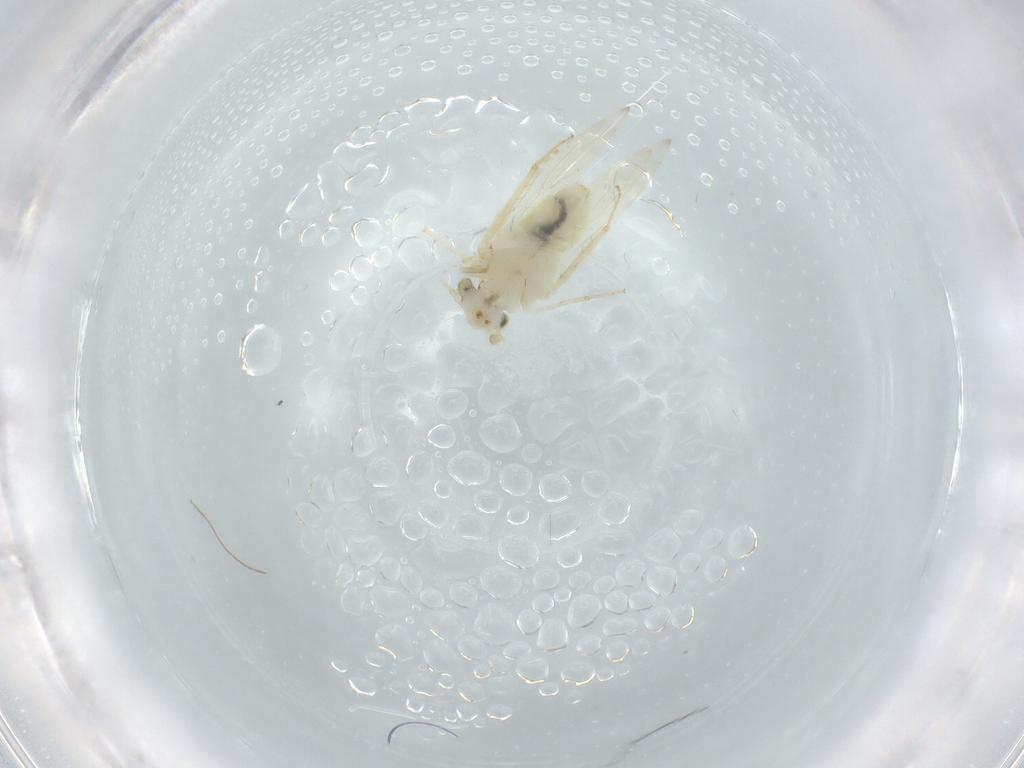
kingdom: Animalia
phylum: Arthropoda
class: Insecta
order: Psocodea
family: Lepidopsocidae
